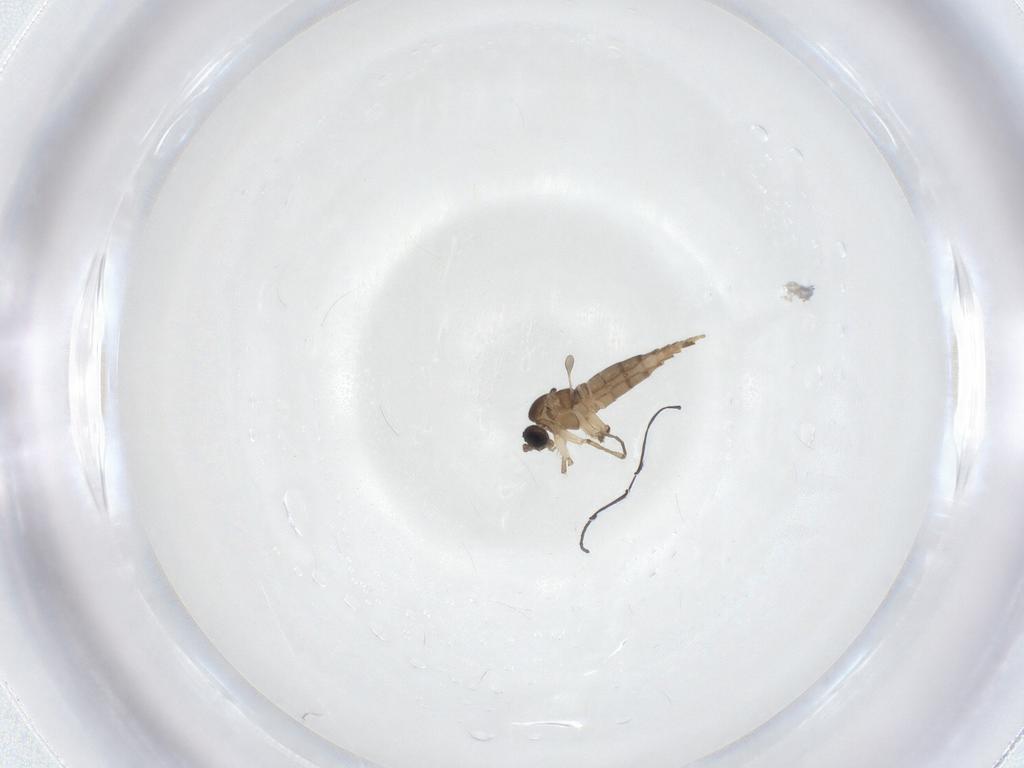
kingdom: Animalia
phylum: Arthropoda
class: Insecta
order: Diptera
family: Sciaridae
